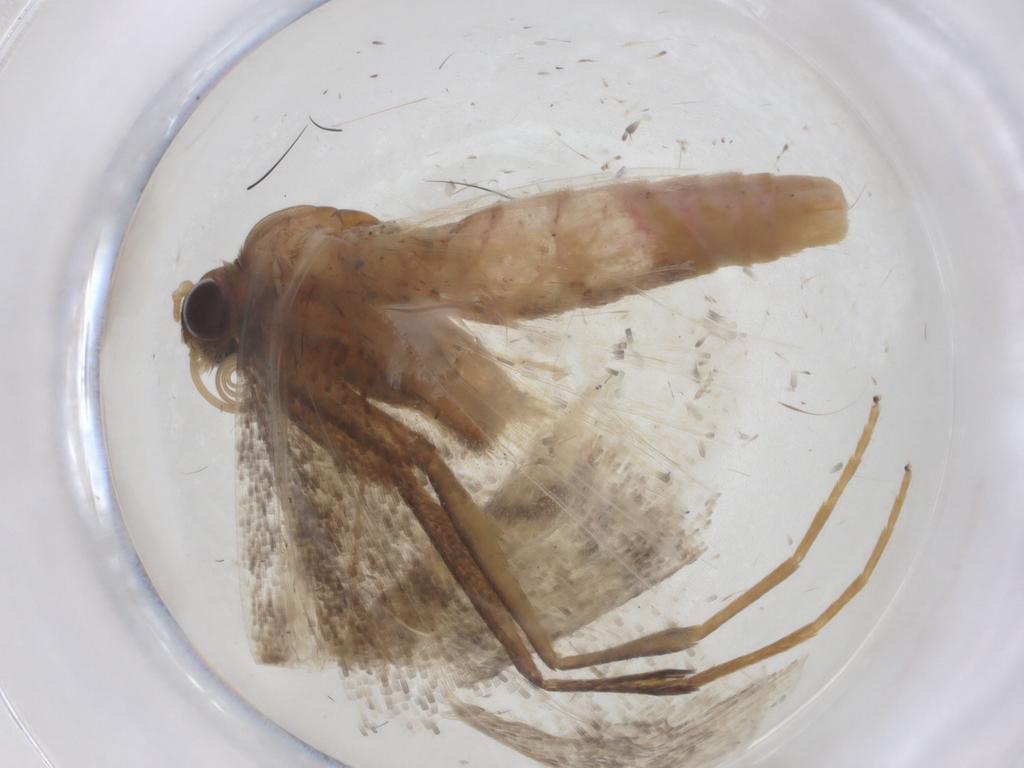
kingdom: Animalia
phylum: Arthropoda
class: Insecta
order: Lepidoptera
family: Geometridae
